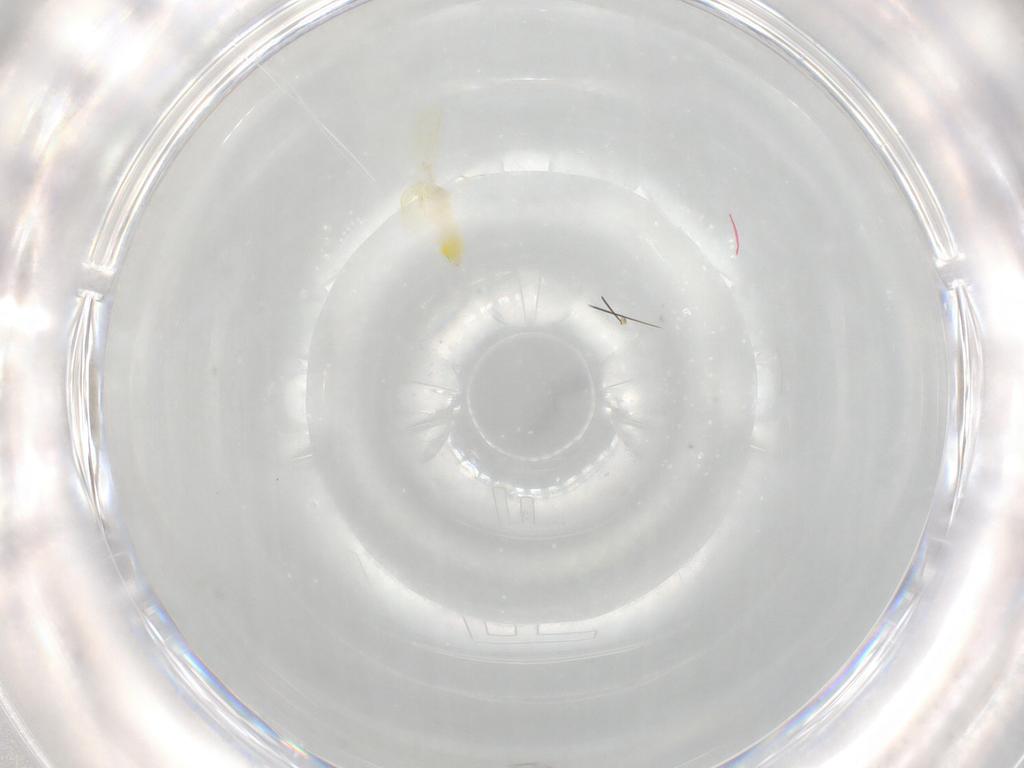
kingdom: Animalia
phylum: Arthropoda
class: Insecta
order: Hemiptera
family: Aleyrodidae
